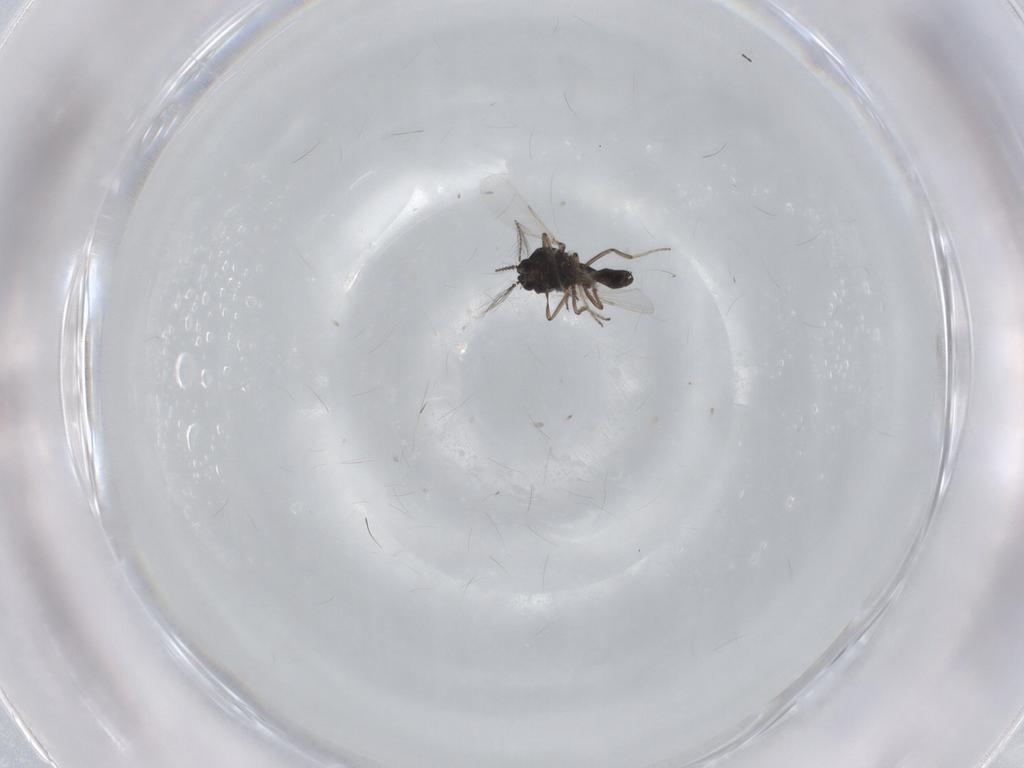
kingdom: Animalia
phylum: Arthropoda
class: Insecta
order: Diptera
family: Ceratopogonidae
